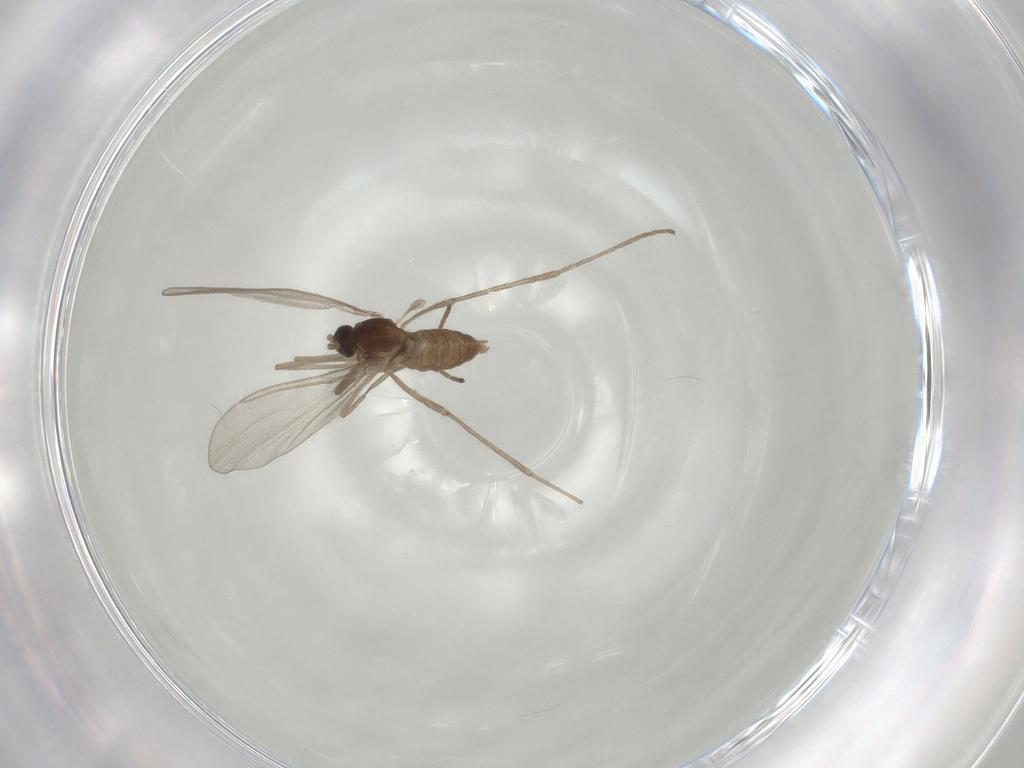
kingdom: Animalia
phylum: Arthropoda
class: Insecta
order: Diptera
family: Cecidomyiidae
